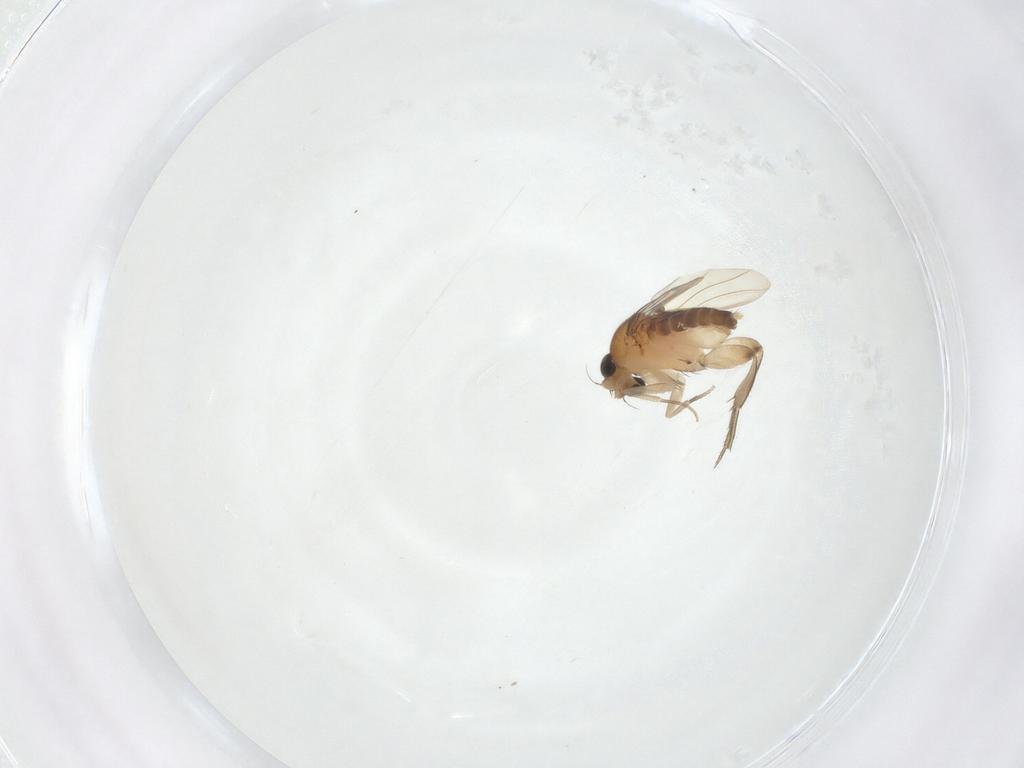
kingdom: Animalia
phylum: Arthropoda
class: Insecta
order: Diptera
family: Phoridae
